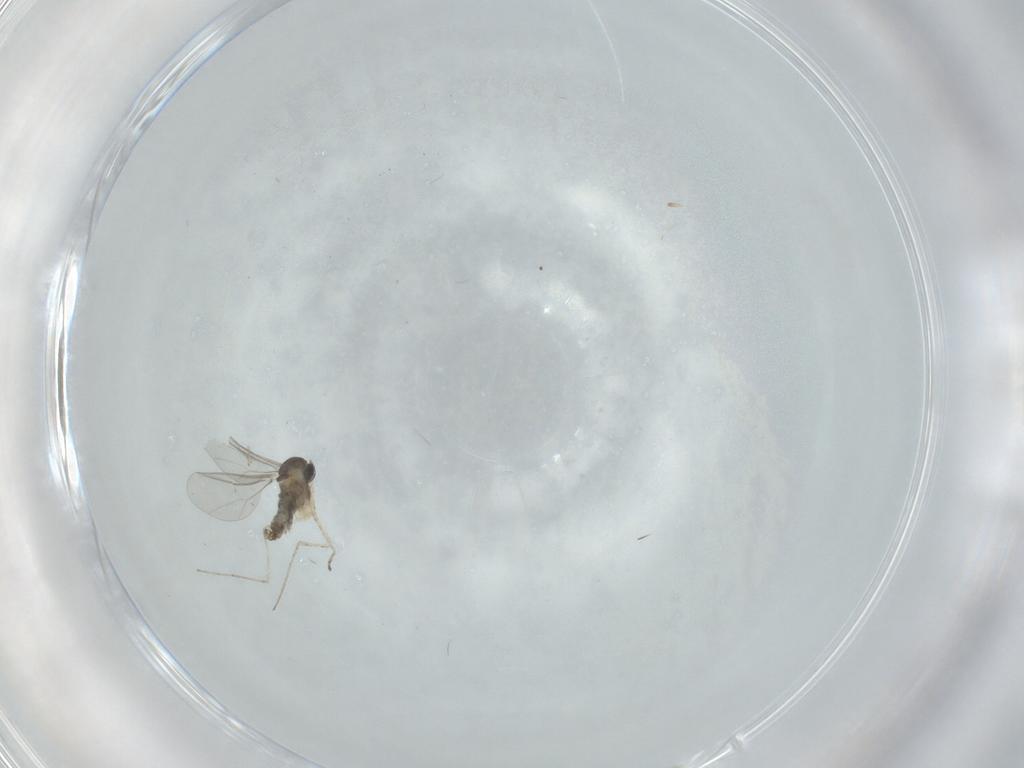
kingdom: Animalia
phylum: Arthropoda
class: Insecta
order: Diptera
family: Cecidomyiidae
